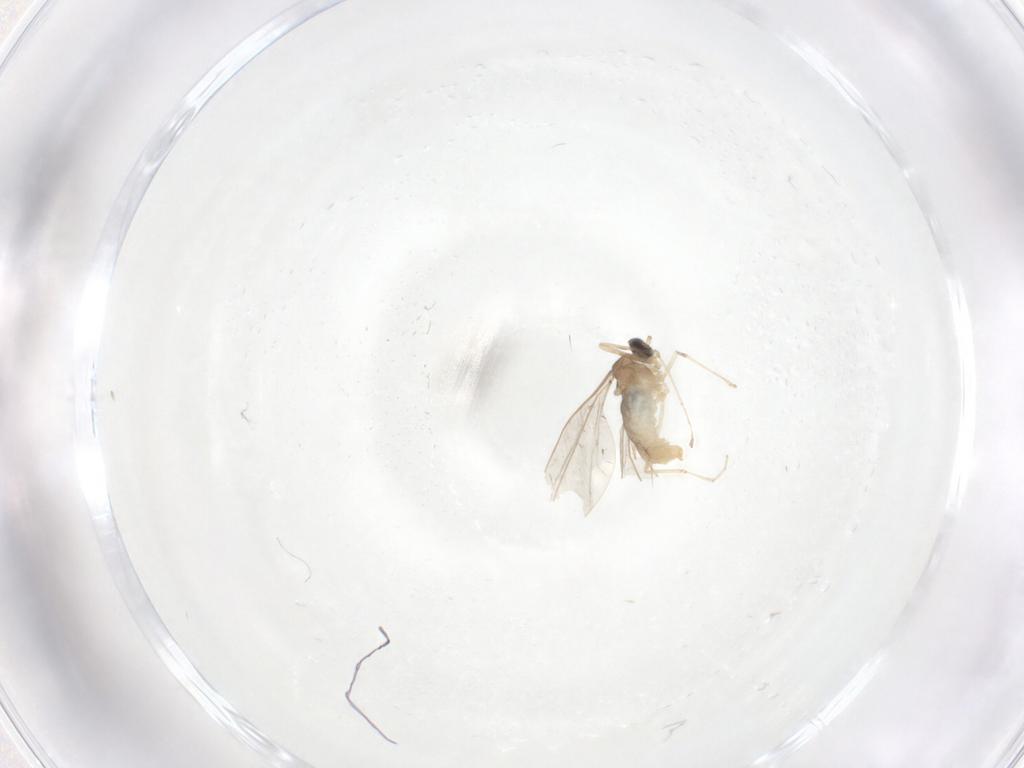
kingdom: Animalia
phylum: Arthropoda
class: Insecta
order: Diptera
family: Cecidomyiidae
